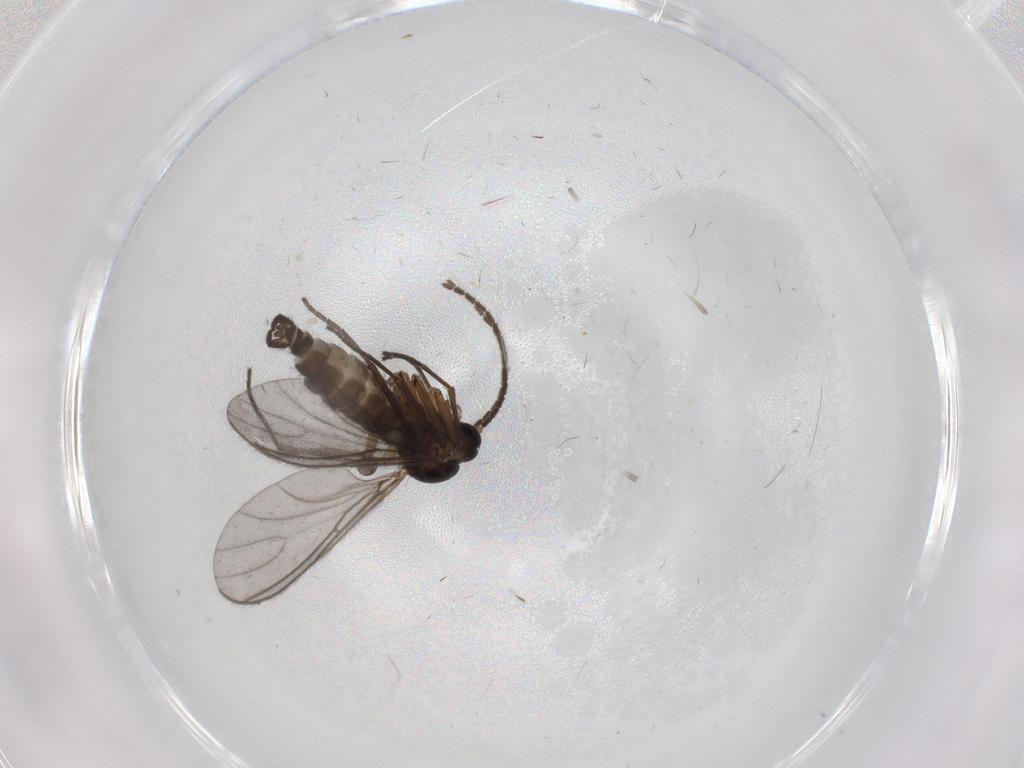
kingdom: Animalia
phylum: Arthropoda
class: Insecta
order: Diptera
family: Sciaridae
